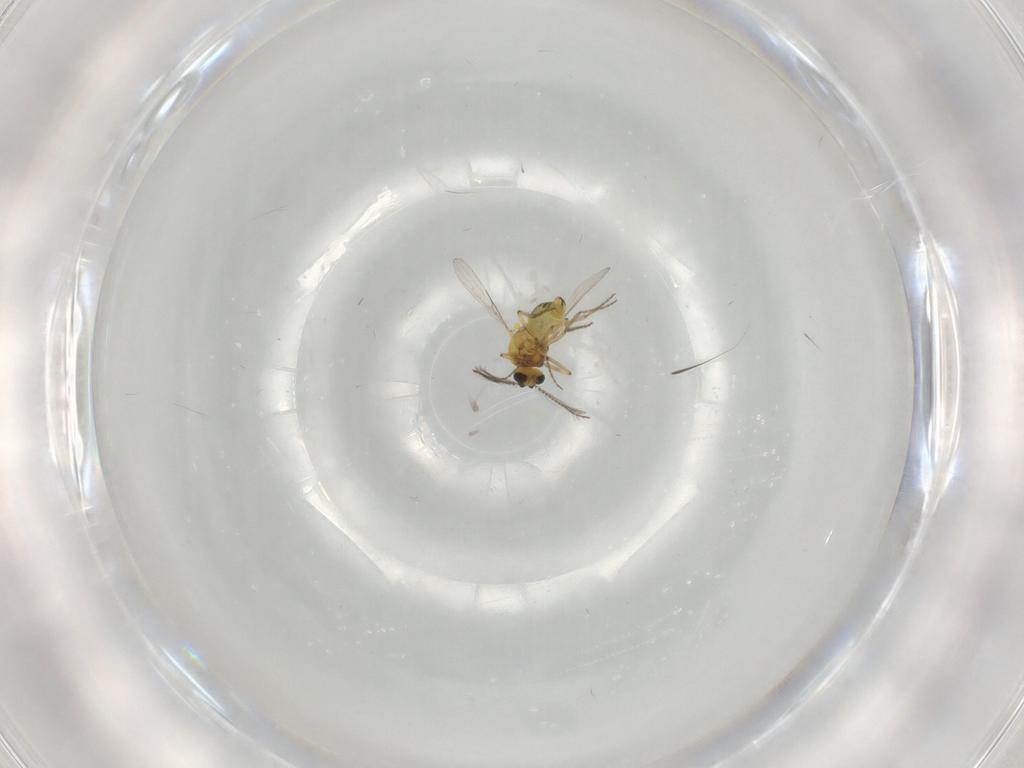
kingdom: Animalia
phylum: Arthropoda
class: Insecta
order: Diptera
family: Ceratopogonidae
